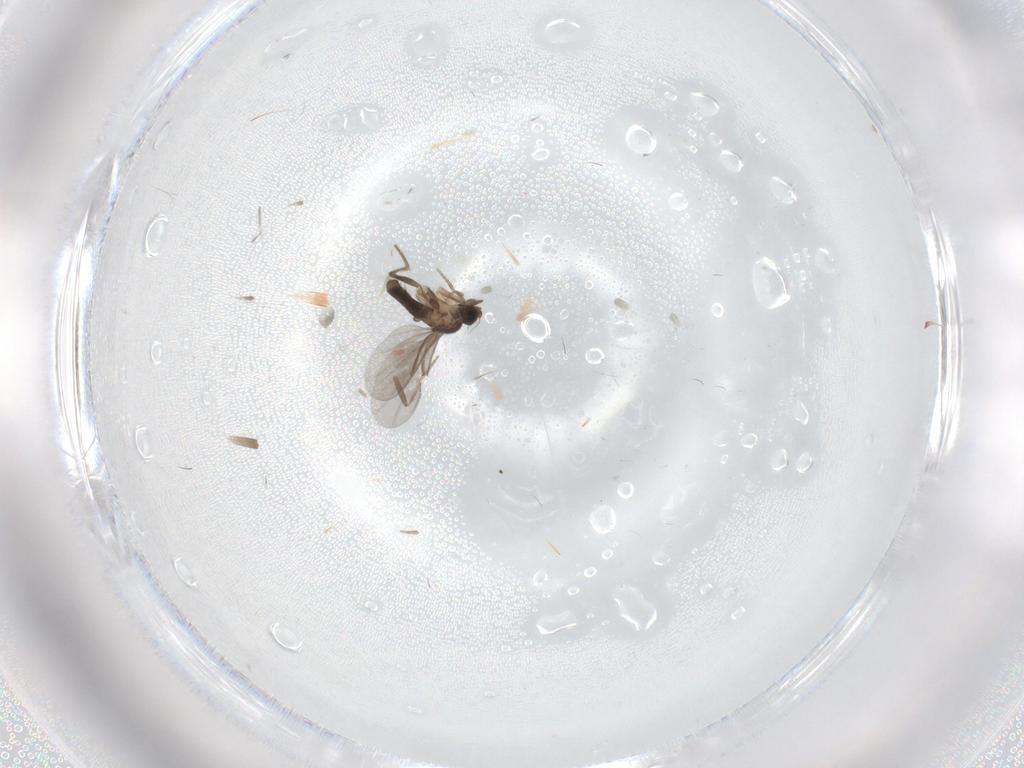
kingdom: Animalia
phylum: Arthropoda
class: Insecta
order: Diptera
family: Phoridae
